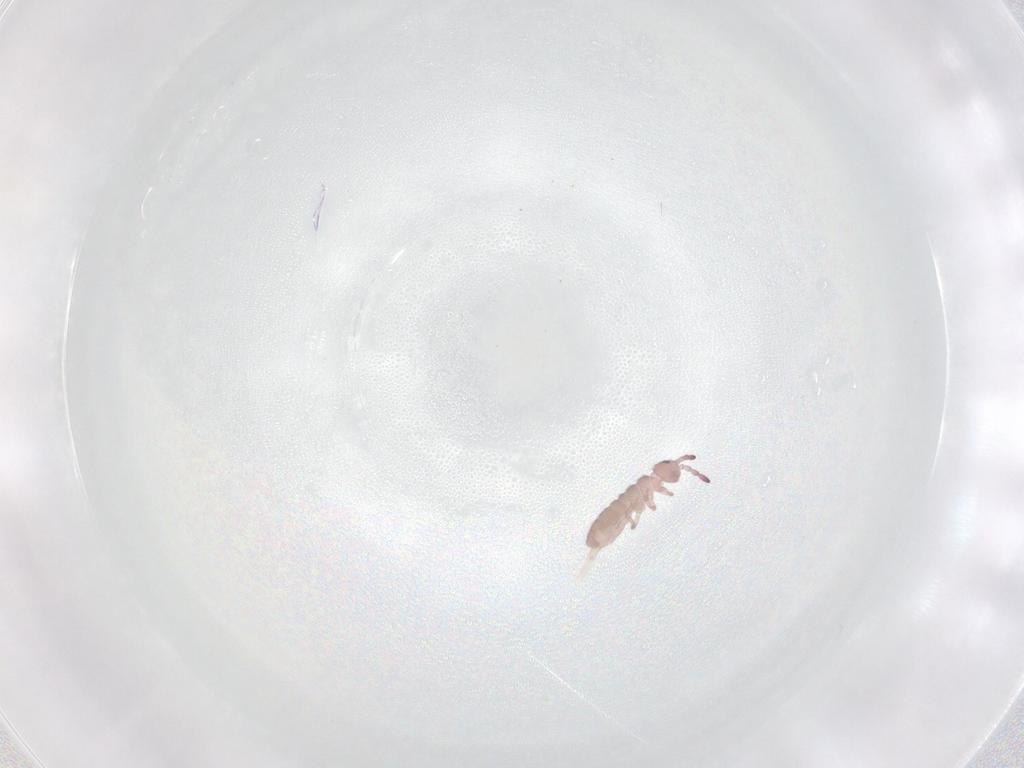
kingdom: Animalia
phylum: Arthropoda
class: Collembola
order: Entomobryomorpha
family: Isotomidae
